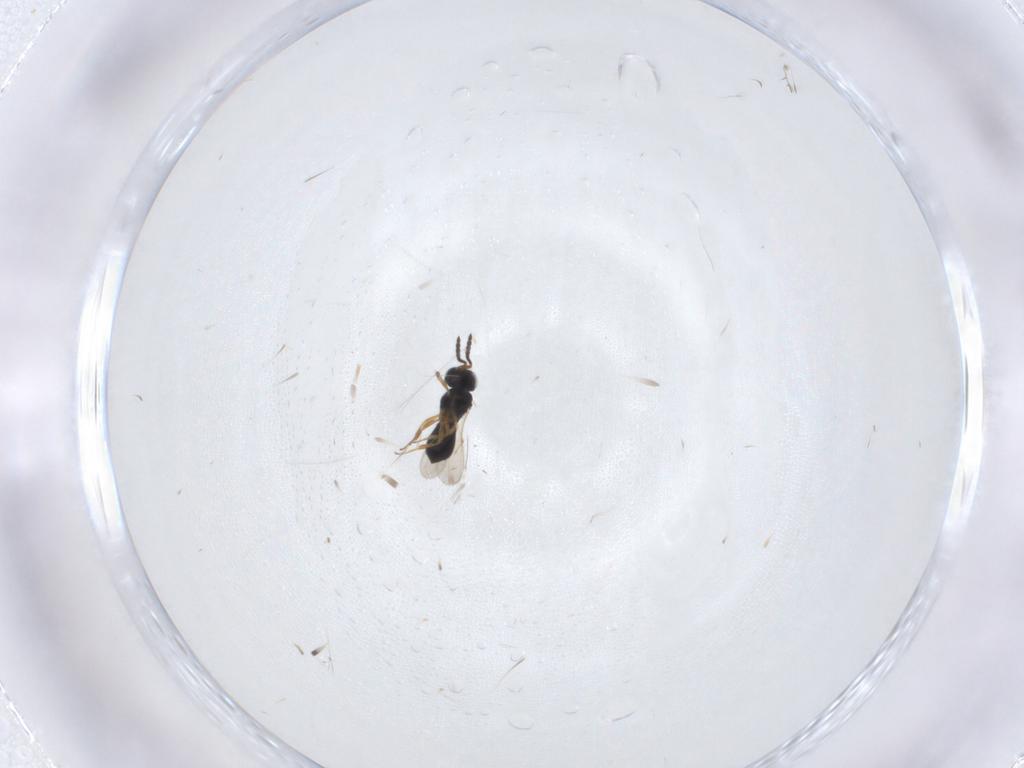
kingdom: Animalia
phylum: Arthropoda
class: Insecta
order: Hymenoptera
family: Scelionidae
